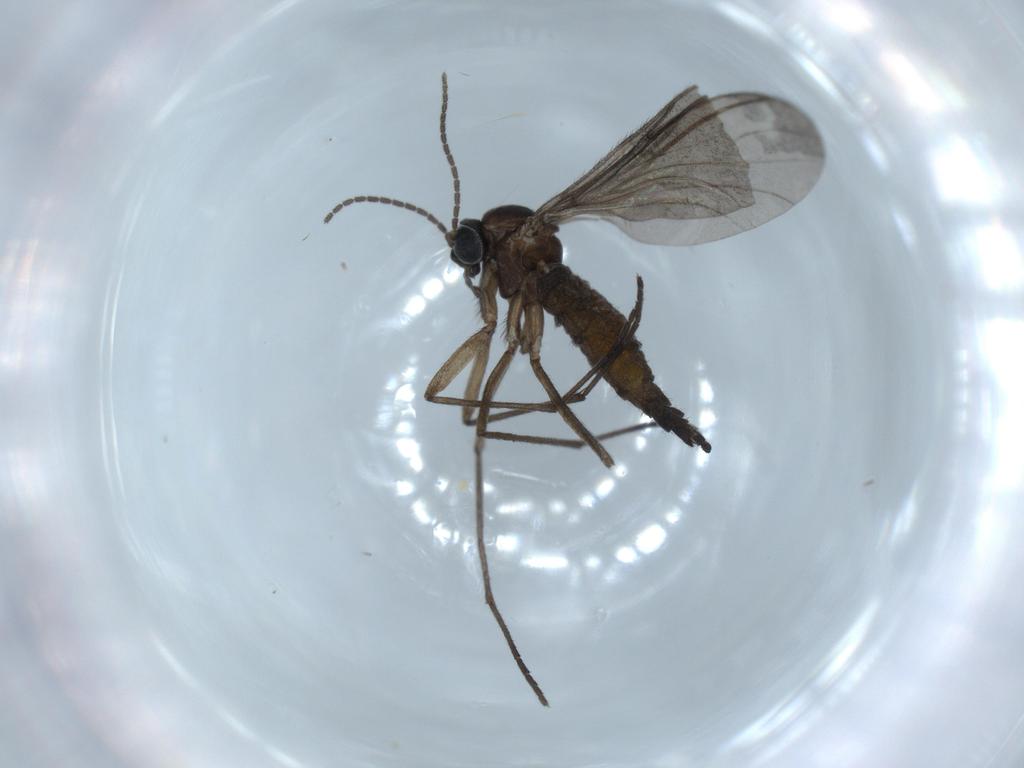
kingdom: Animalia
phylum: Arthropoda
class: Insecta
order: Diptera
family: Sciaridae
